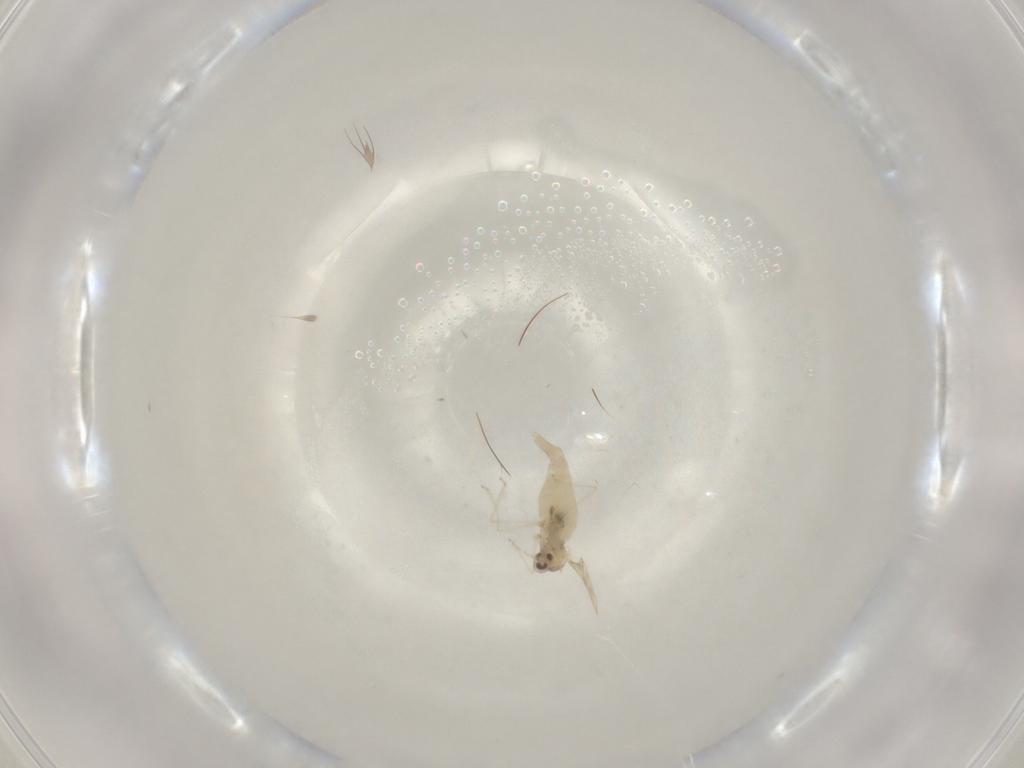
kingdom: Animalia
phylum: Arthropoda
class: Insecta
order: Diptera
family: Cecidomyiidae
